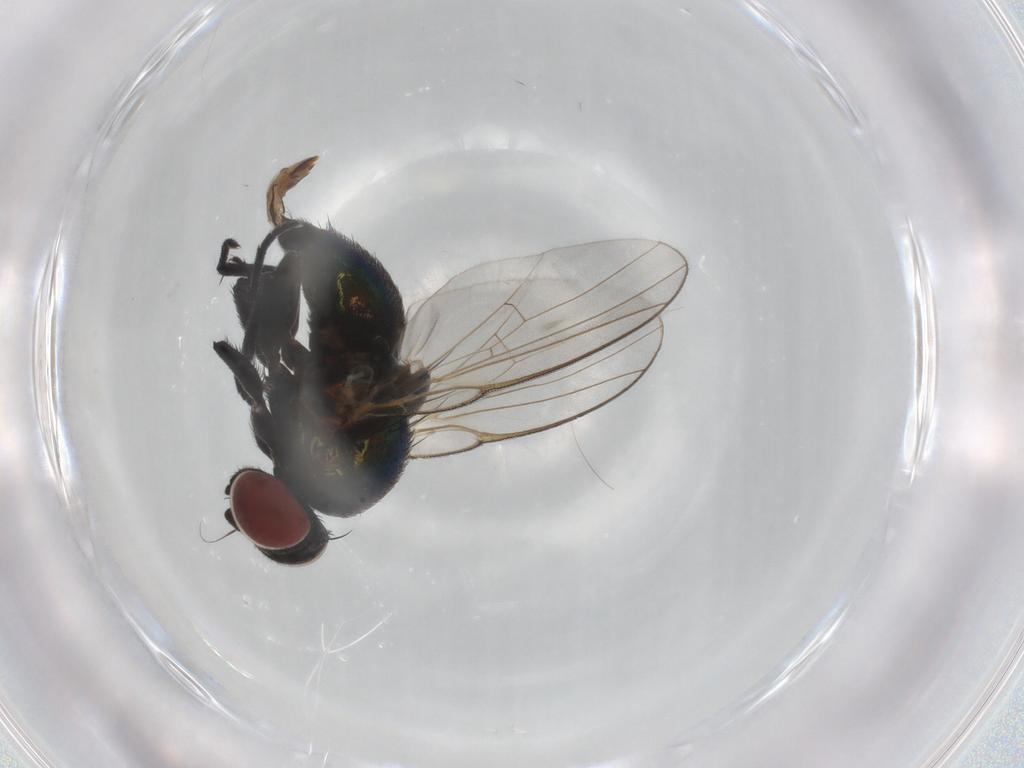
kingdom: Animalia
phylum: Arthropoda
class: Insecta
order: Diptera
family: Agromyzidae
